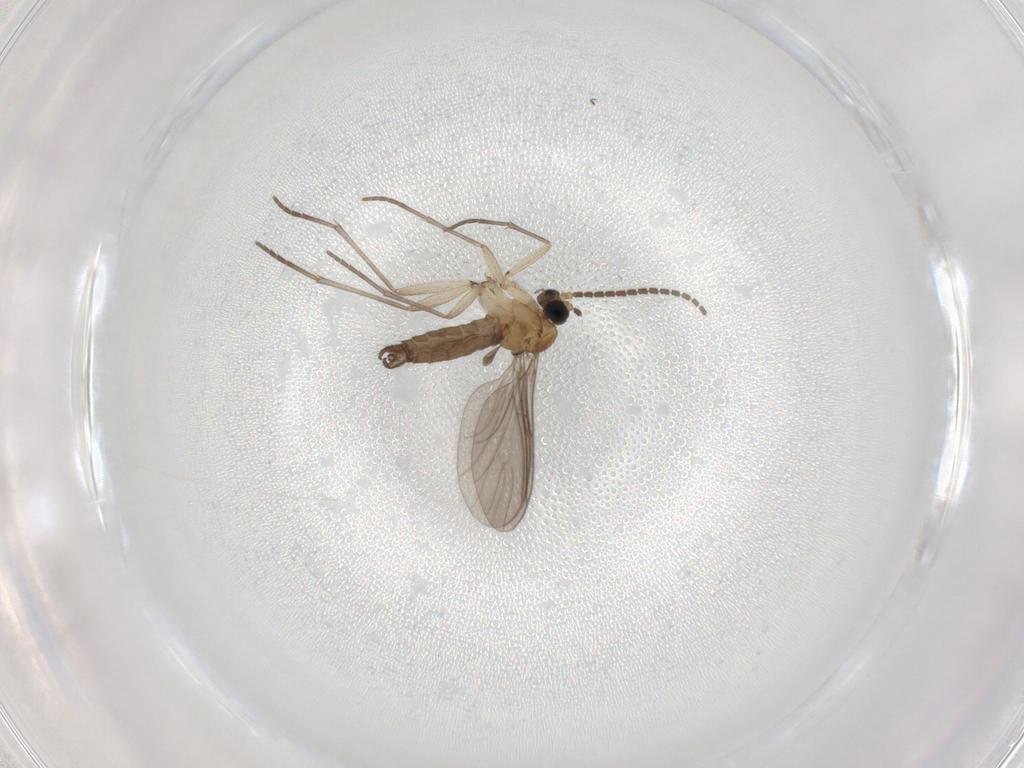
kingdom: Animalia
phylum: Arthropoda
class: Insecta
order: Diptera
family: Sciaridae
